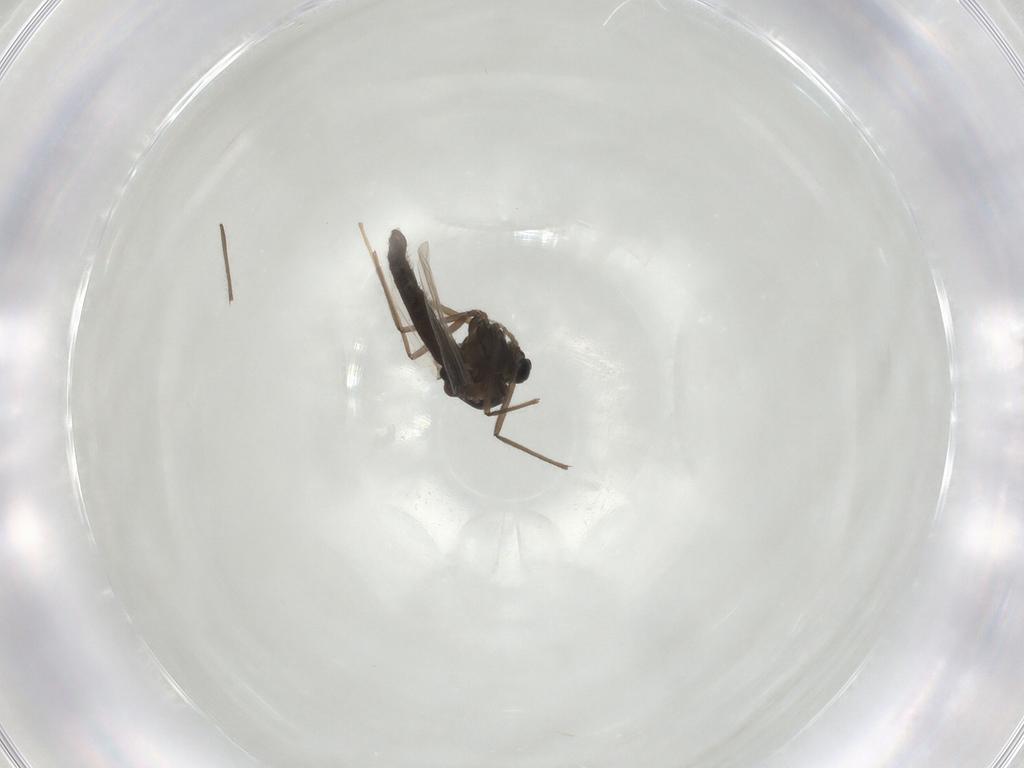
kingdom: Animalia
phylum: Arthropoda
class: Insecta
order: Diptera
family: Chironomidae
